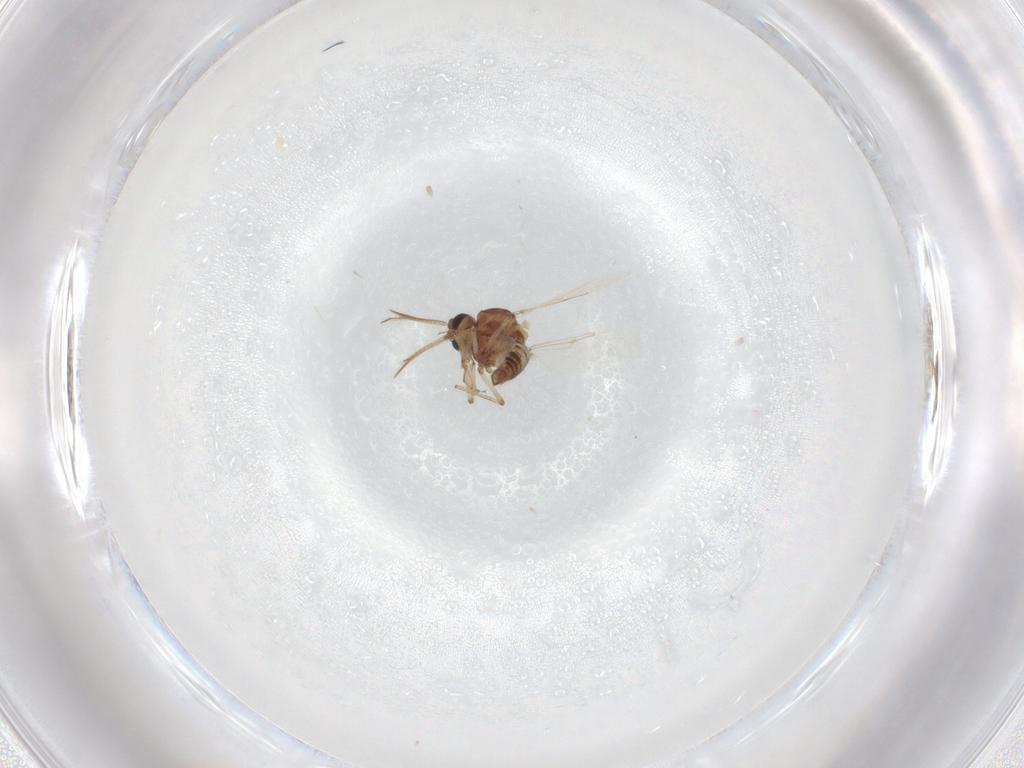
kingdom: Animalia
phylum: Arthropoda
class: Insecta
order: Diptera
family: Ceratopogonidae
